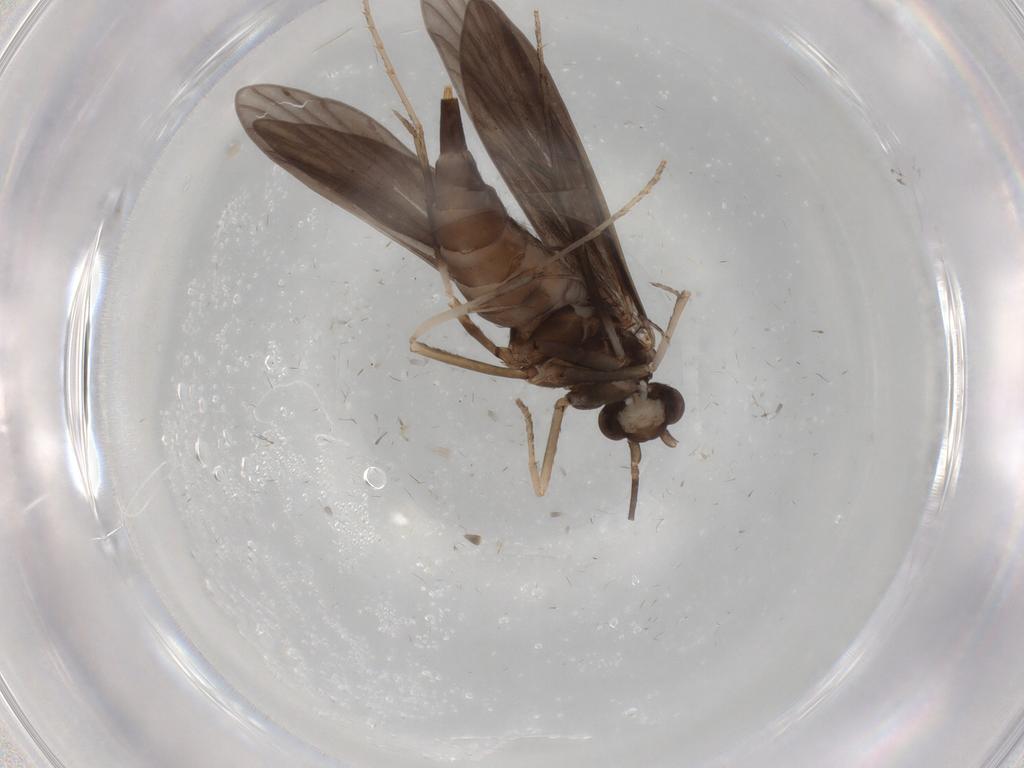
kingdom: Animalia
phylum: Arthropoda
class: Insecta
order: Trichoptera
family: Xiphocentronidae
